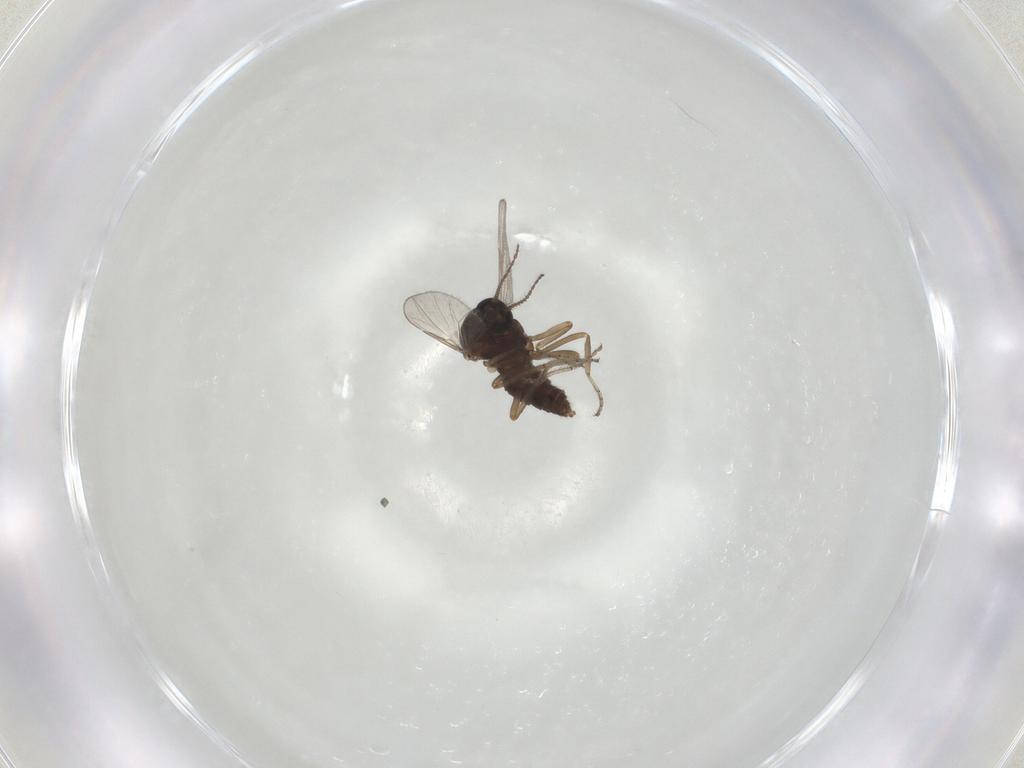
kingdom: Animalia
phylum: Arthropoda
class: Insecta
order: Diptera
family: Ceratopogonidae
